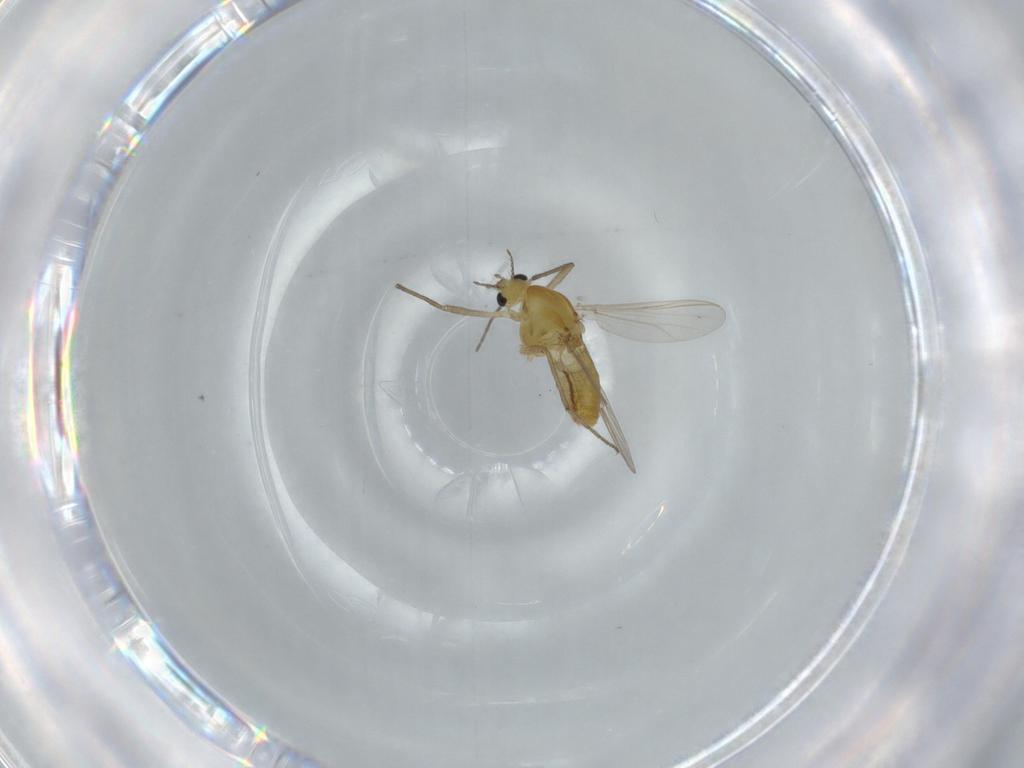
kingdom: Animalia
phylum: Arthropoda
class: Insecta
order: Diptera
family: Chironomidae
